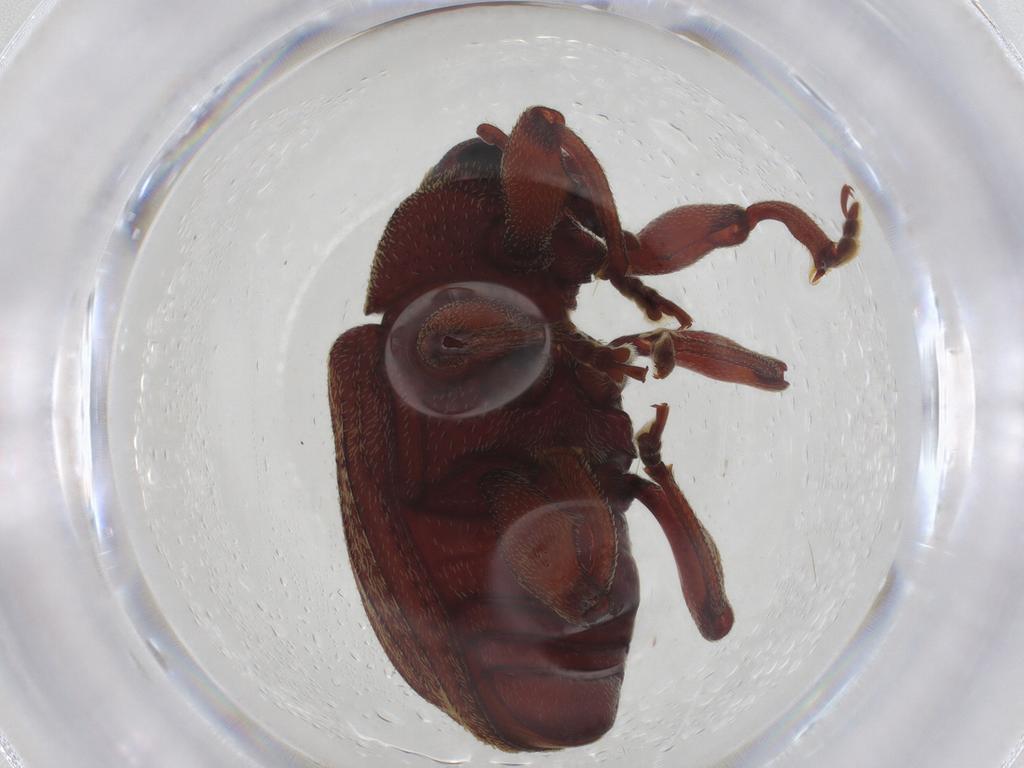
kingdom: Animalia
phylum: Arthropoda
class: Insecta
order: Coleoptera
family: Curculionidae
